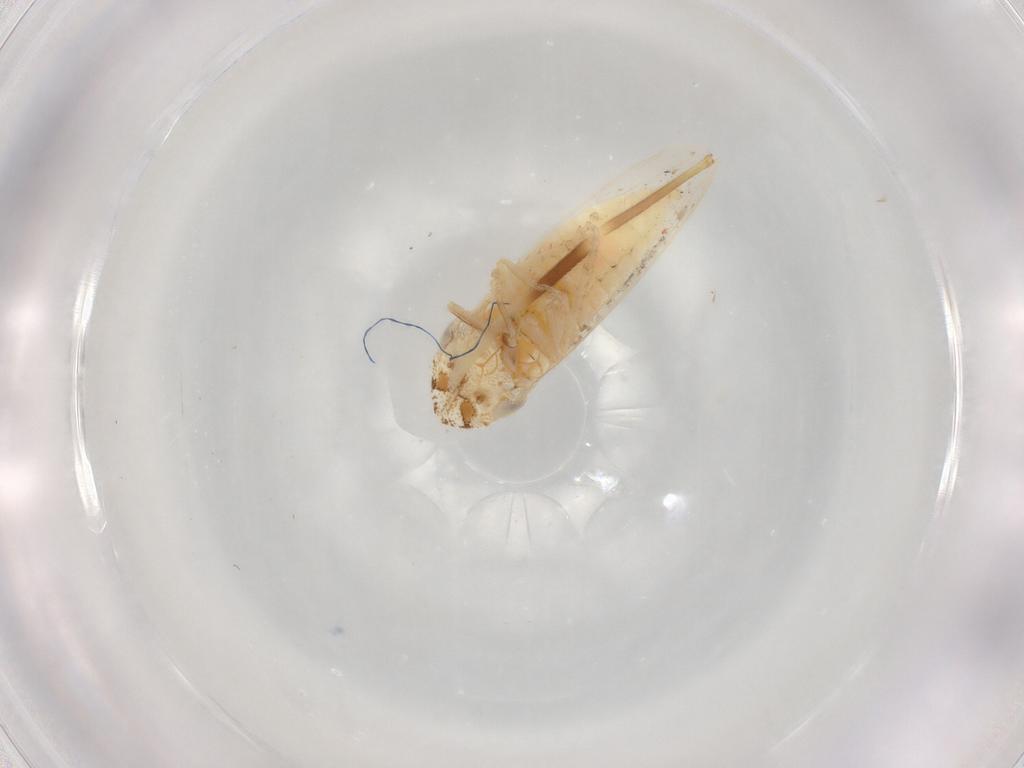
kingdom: Animalia
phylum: Arthropoda
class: Insecta
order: Hemiptera
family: Cicadellidae
